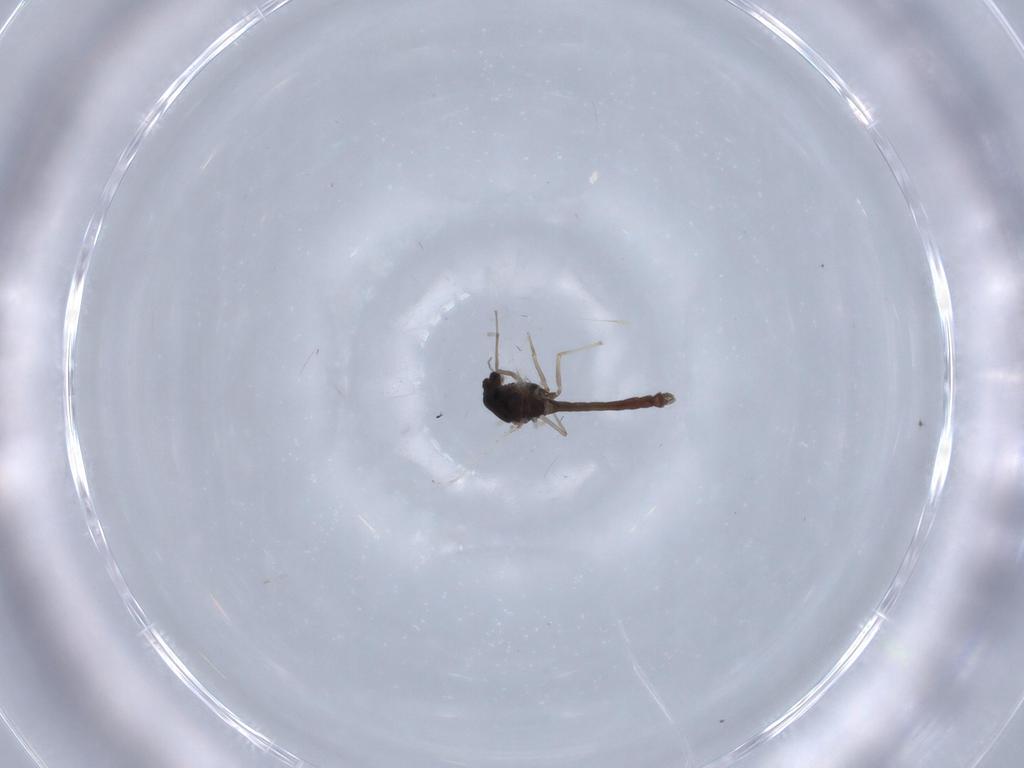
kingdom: Animalia
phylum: Arthropoda
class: Insecta
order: Diptera
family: Chironomidae
